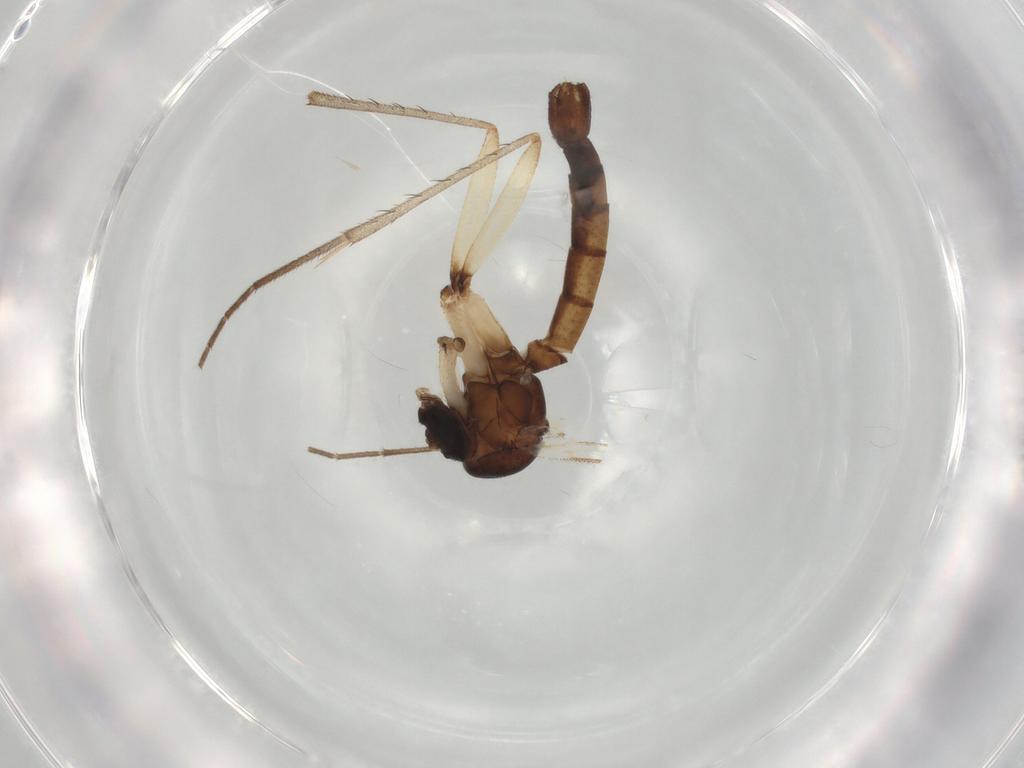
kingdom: Animalia
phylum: Arthropoda
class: Insecta
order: Diptera
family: Mycetophilidae
